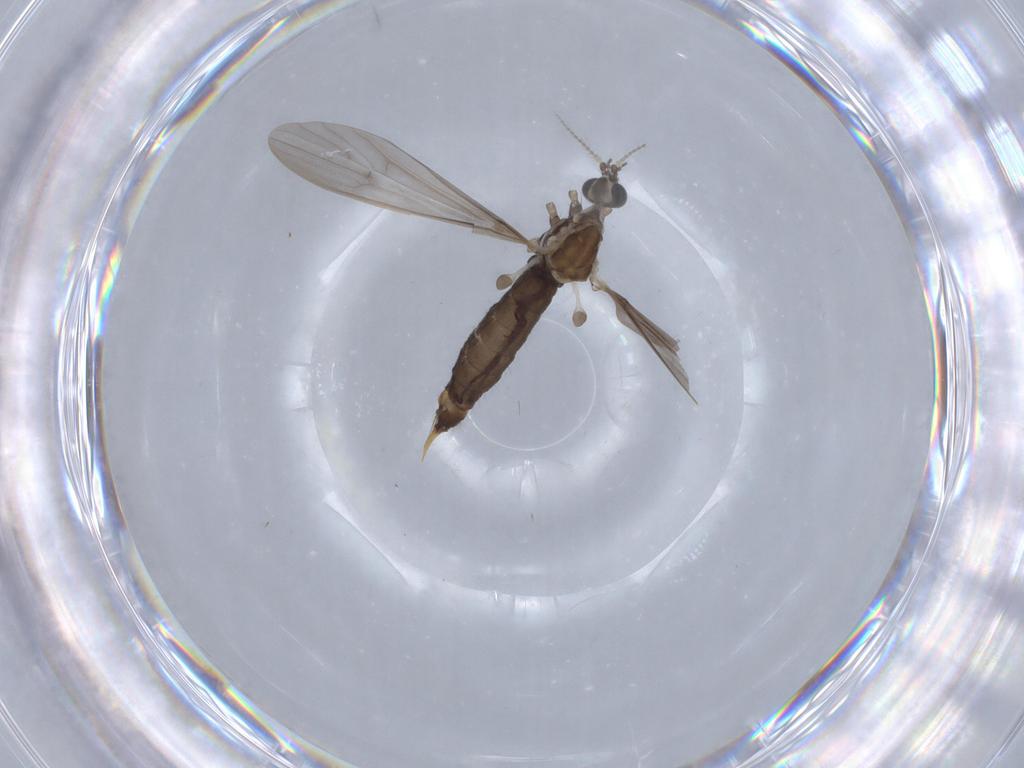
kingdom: Animalia
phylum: Arthropoda
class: Insecta
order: Diptera
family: Limoniidae
